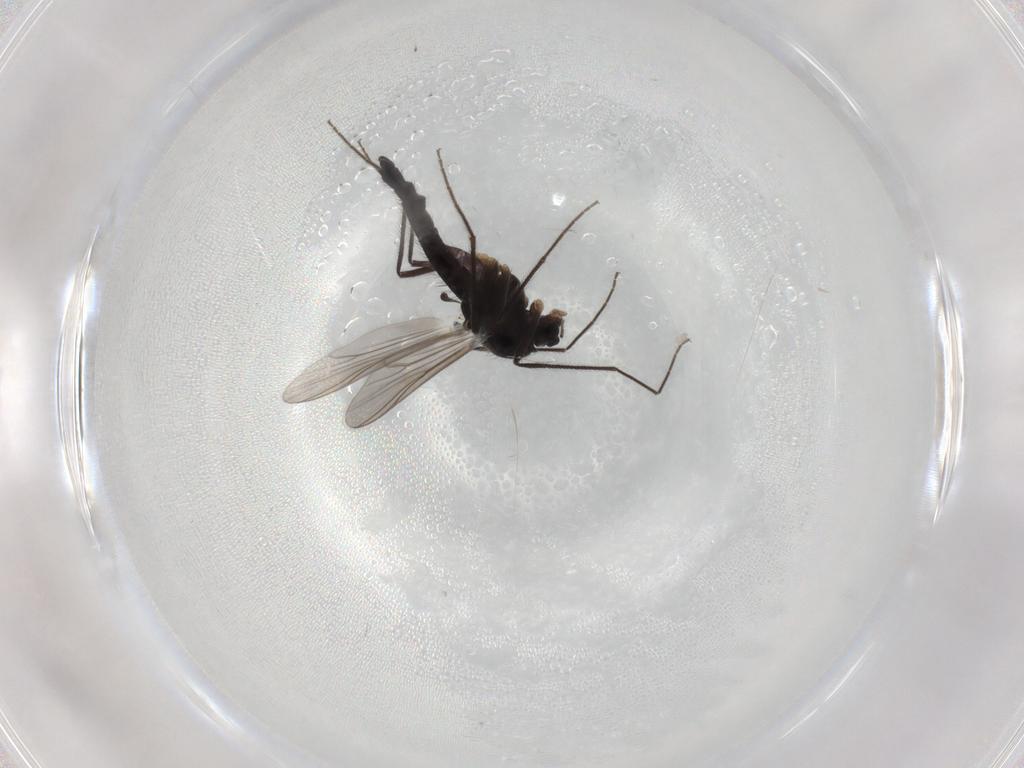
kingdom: Animalia
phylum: Arthropoda
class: Insecta
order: Diptera
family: Chironomidae
